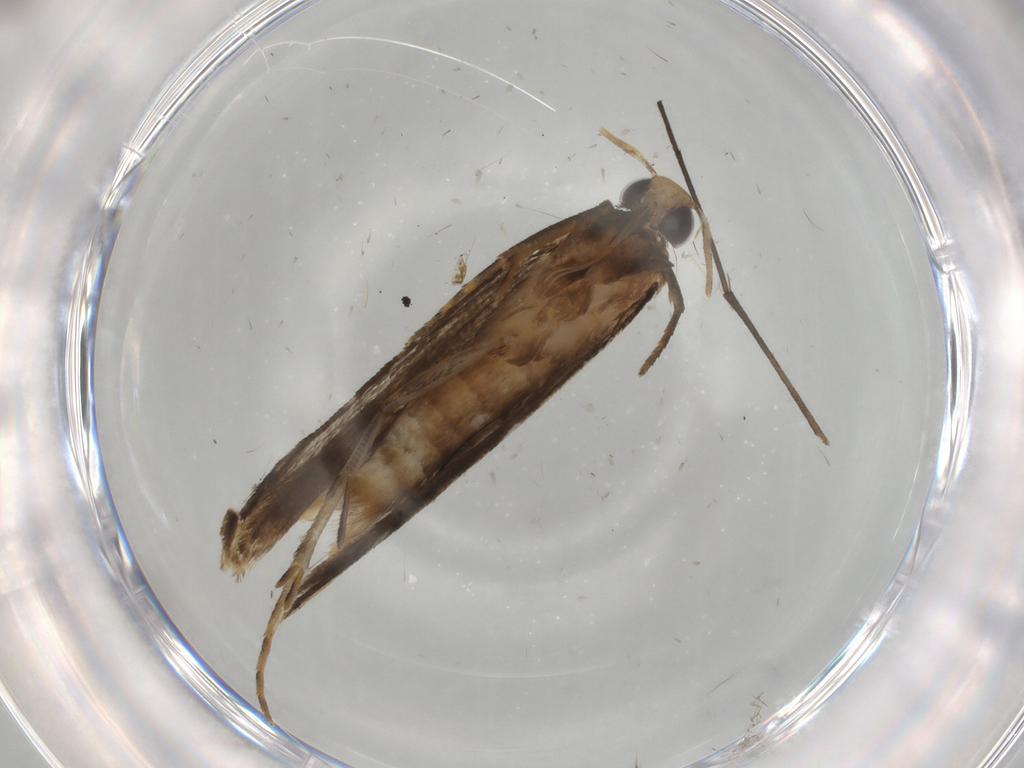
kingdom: Animalia
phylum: Arthropoda
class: Insecta
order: Lepidoptera
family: Gelechiidae
